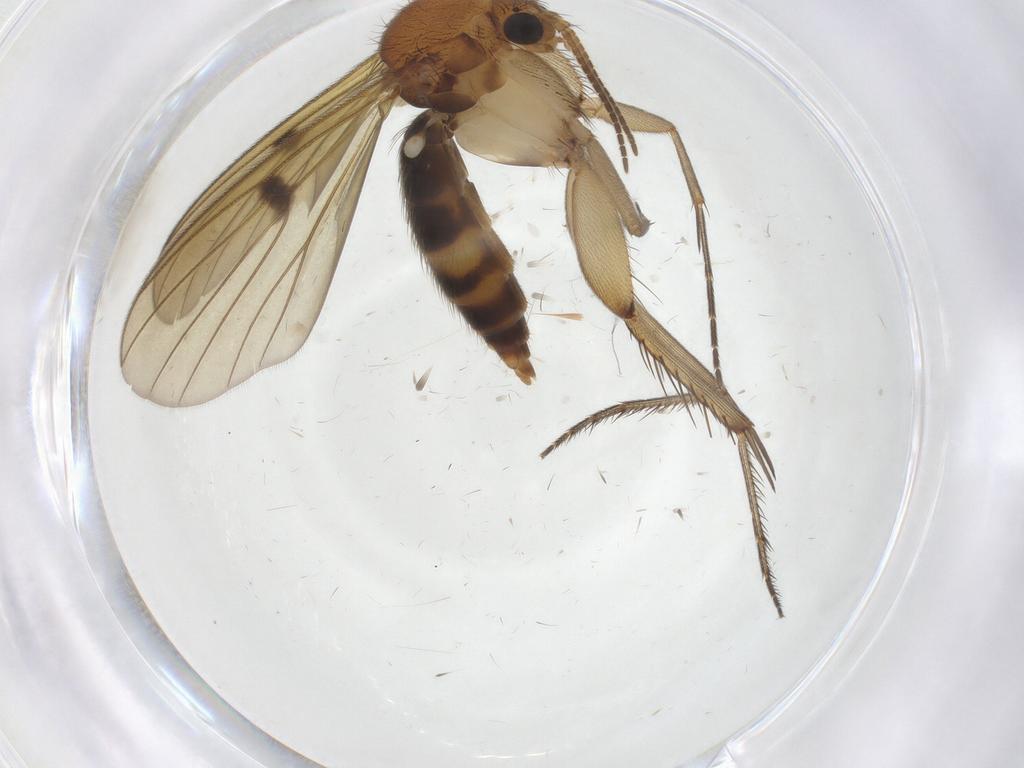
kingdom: Animalia
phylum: Arthropoda
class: Insecta
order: Diptera
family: Mycetophilidae
